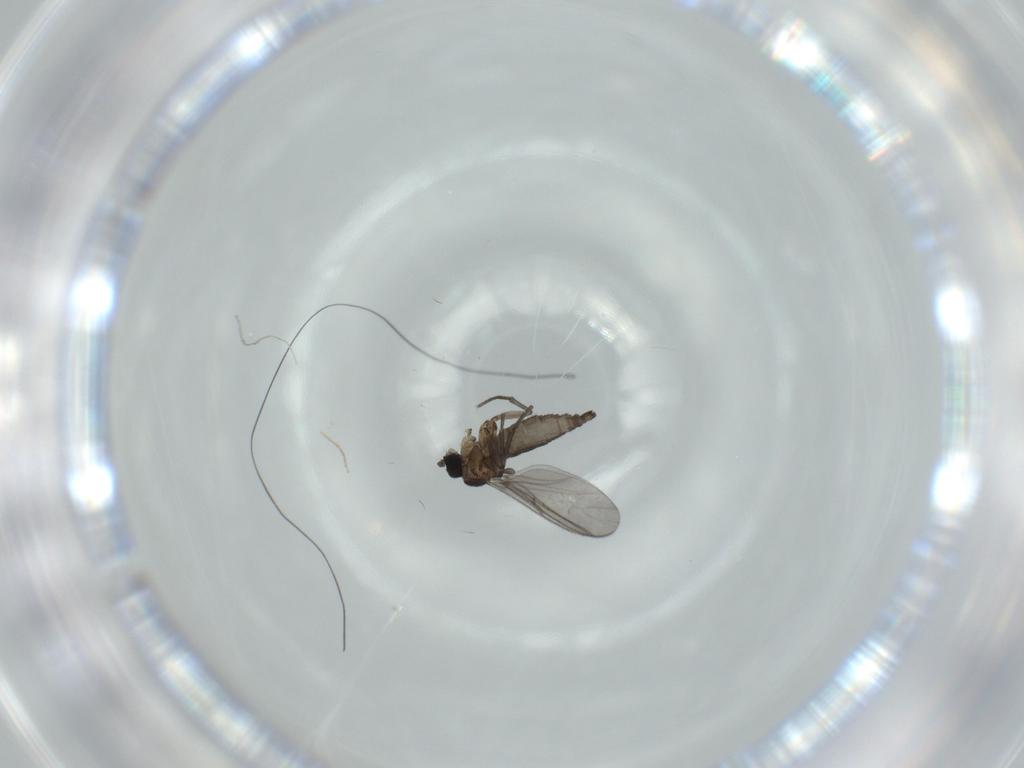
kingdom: Animalia
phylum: Arthropoda
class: Insecta
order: Diptera
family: Chironomidae
